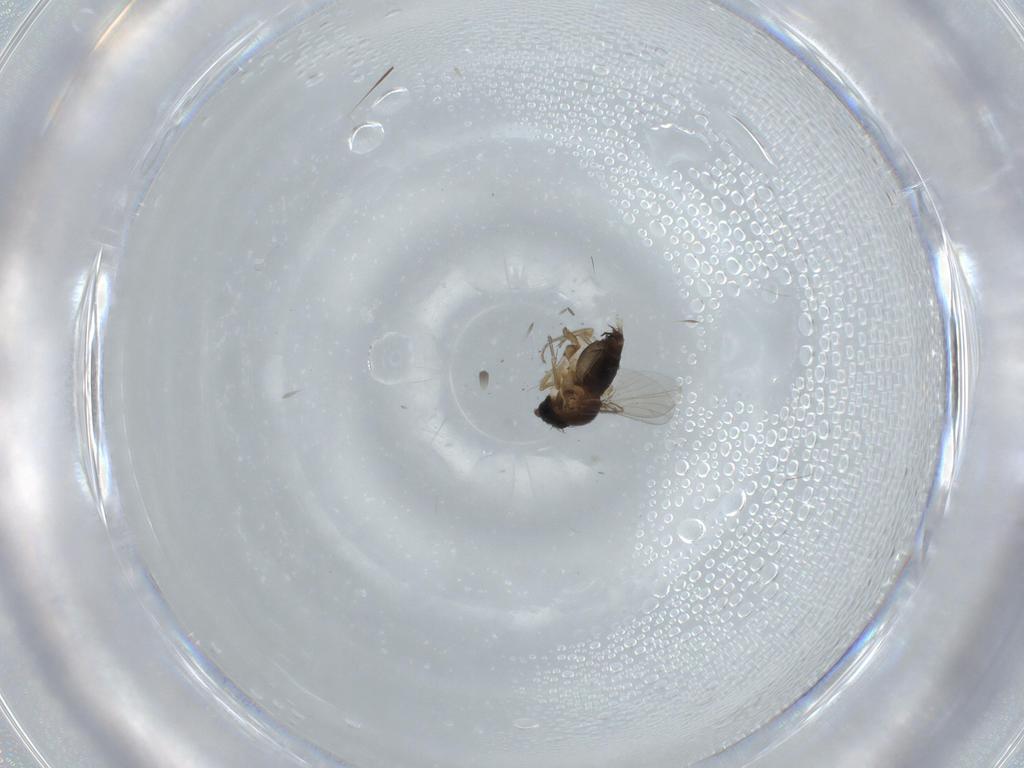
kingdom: Animalia
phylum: Arthropoda
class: Insecta
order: Diptera
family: Phoridae
